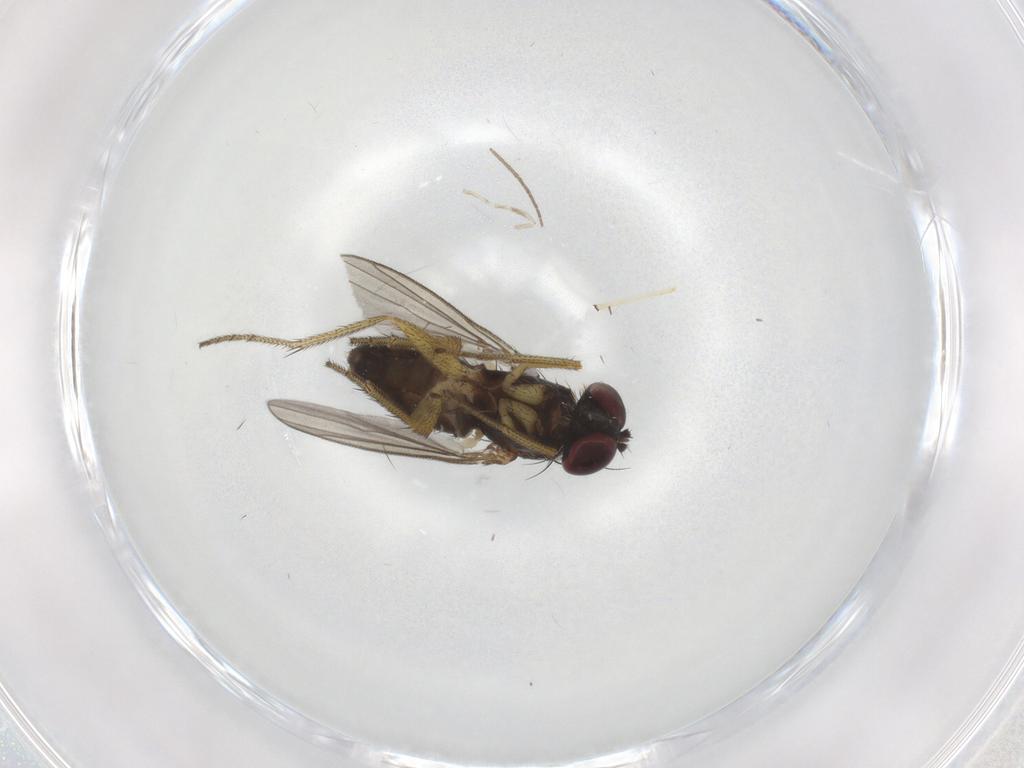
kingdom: Animalia
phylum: Arthropoda
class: Insecta
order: Diptera
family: Cecidomyiidae
